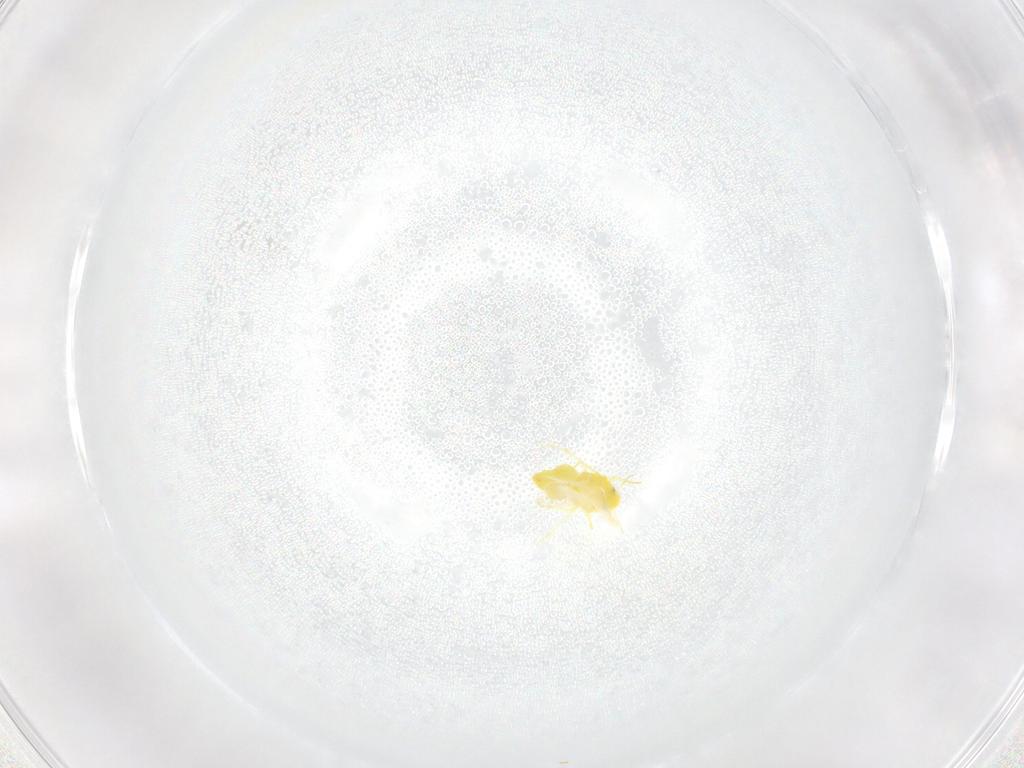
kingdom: Animalia
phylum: Arthropoda
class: Insecta
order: Hemiptera
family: Aleyrodidae
